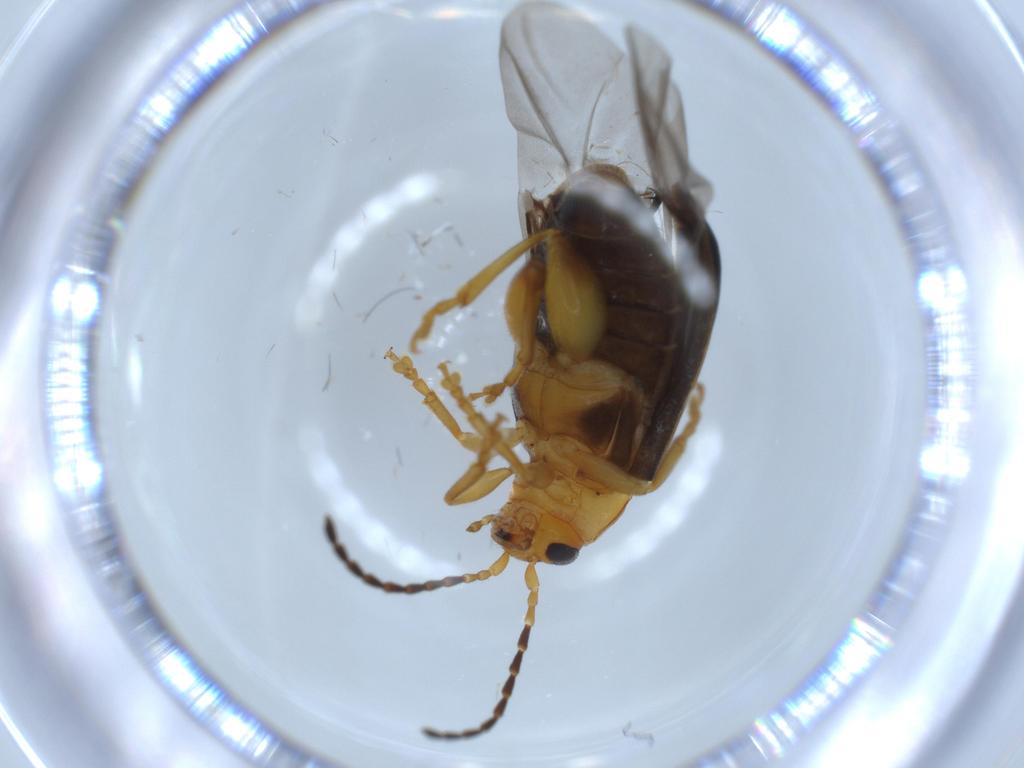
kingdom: Animalia
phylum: Arthropoda
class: Insecta
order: Coleoptera
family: Chrysomelidae
